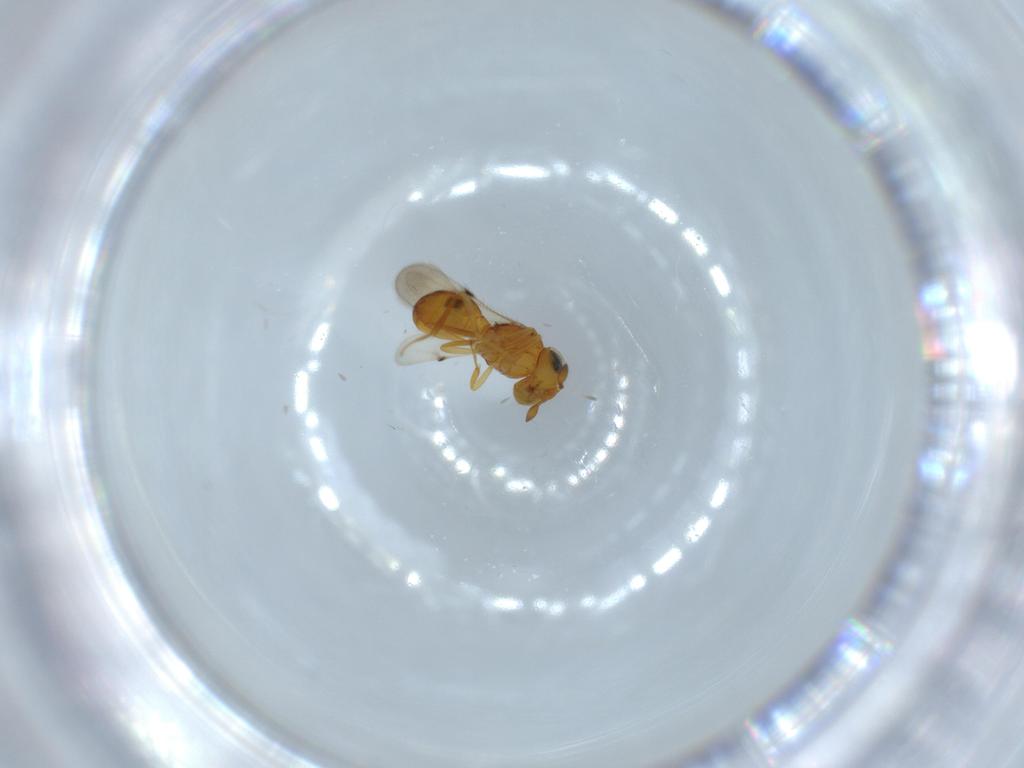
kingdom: Animalia
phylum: Arthropoda
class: Insecta
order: Hymenoptera
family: Scelionidae
